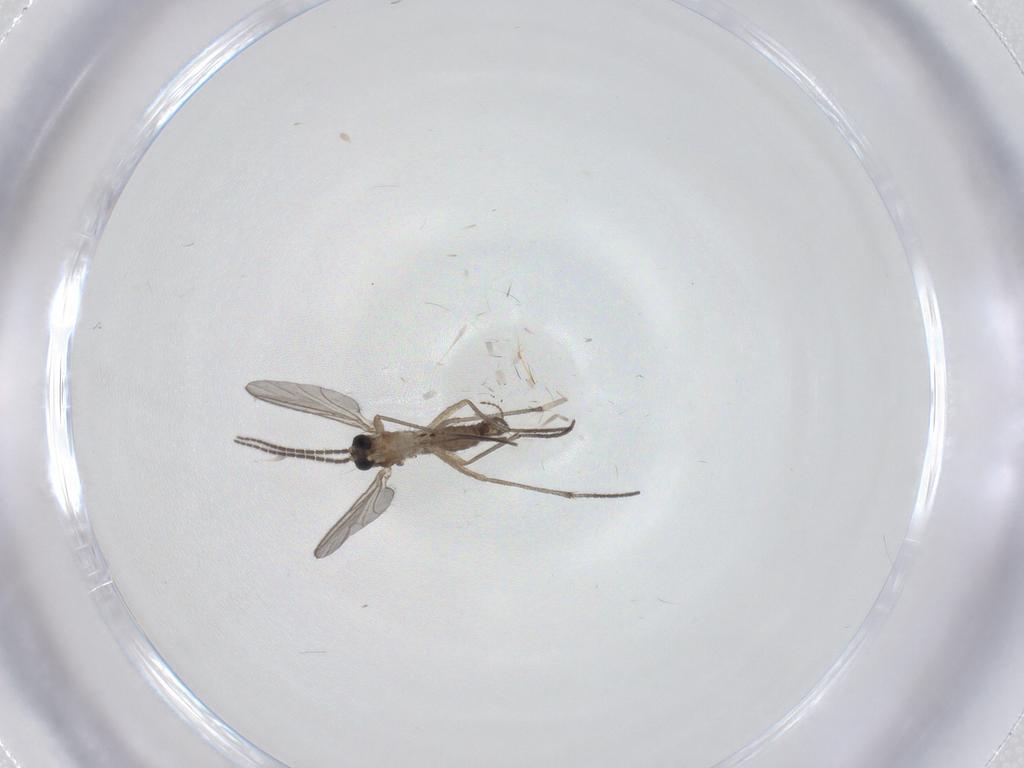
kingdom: Animalia
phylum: Arthropoda
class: Insecta
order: Diptera
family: Sciaridae
